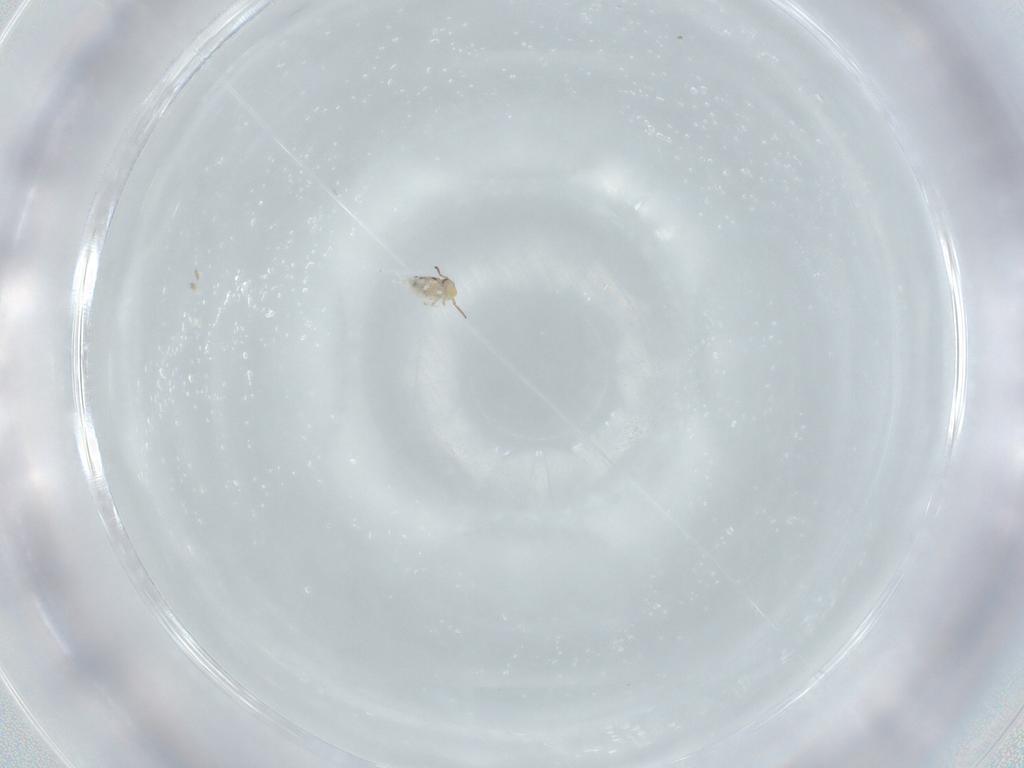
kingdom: Animalia
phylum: Arthropoda
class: Collembola
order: Symphypleona
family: Bourletiellidae
